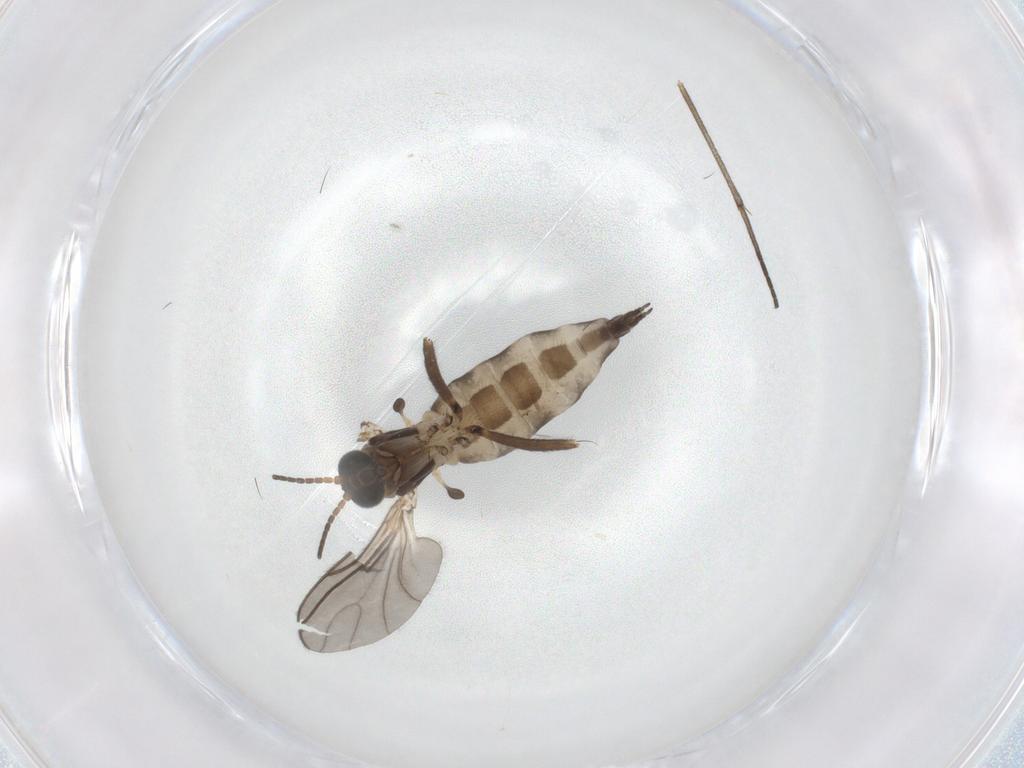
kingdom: Animalia
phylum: Arthropoda
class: Insecta
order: Diptera
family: Sciaridae
